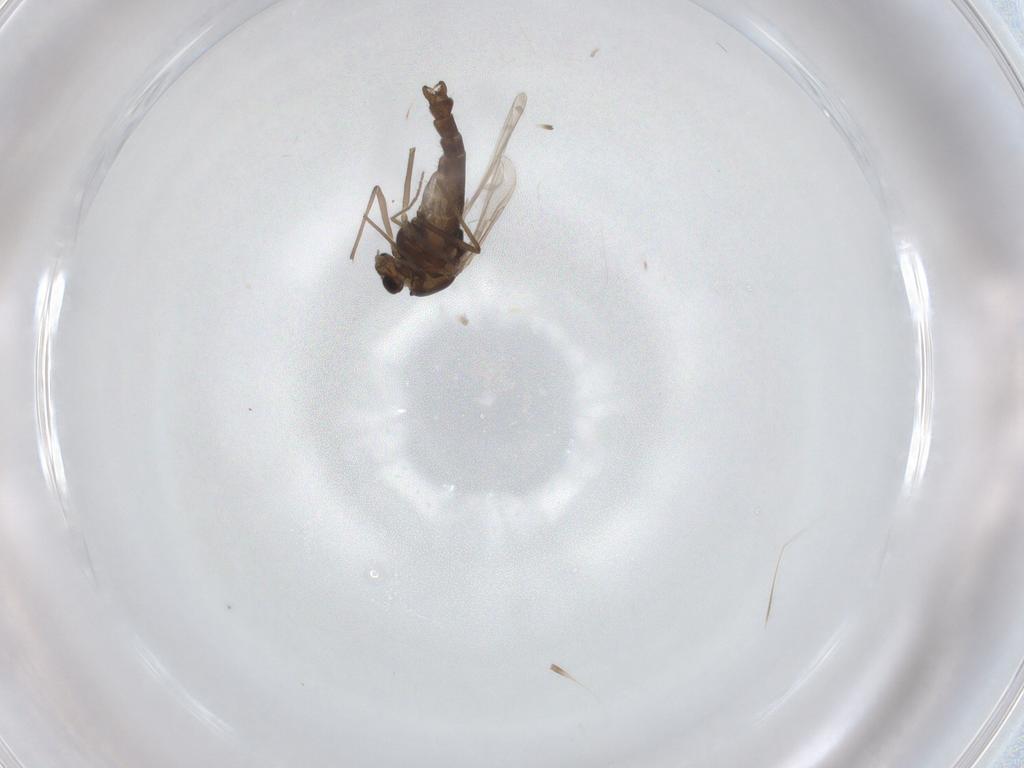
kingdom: Animalia
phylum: Arthropoda
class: Insecta
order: Diptera
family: Chironomidae
